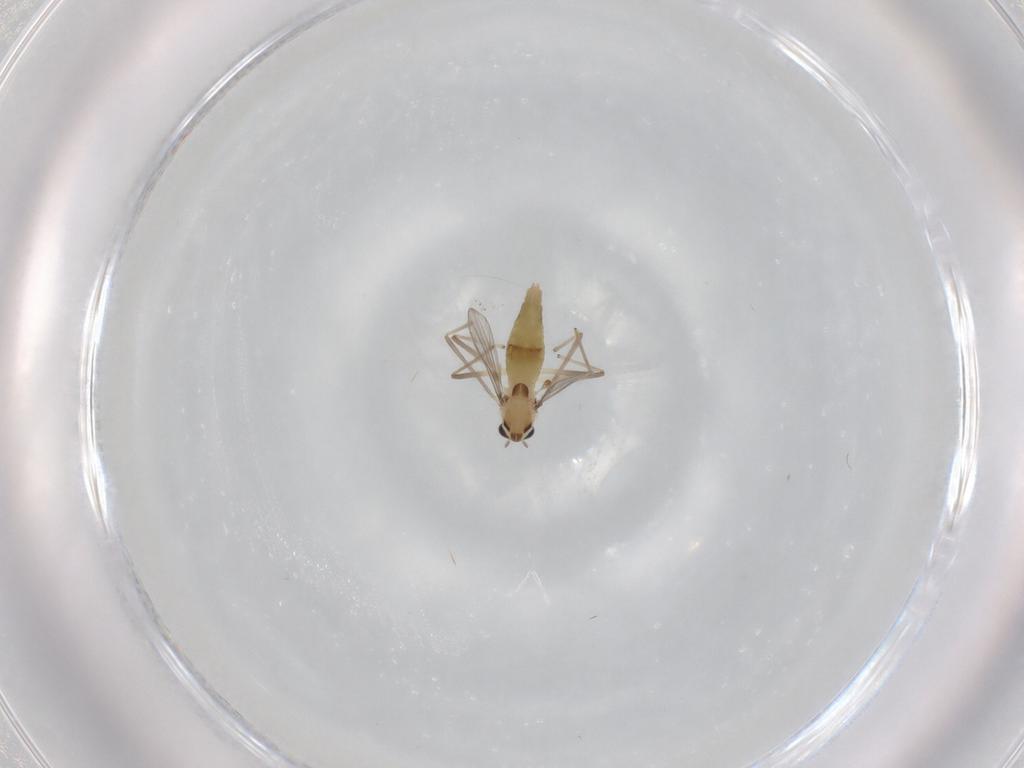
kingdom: Animalia
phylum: Arthropoda
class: Insecta
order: Diptera
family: Chironomidae
